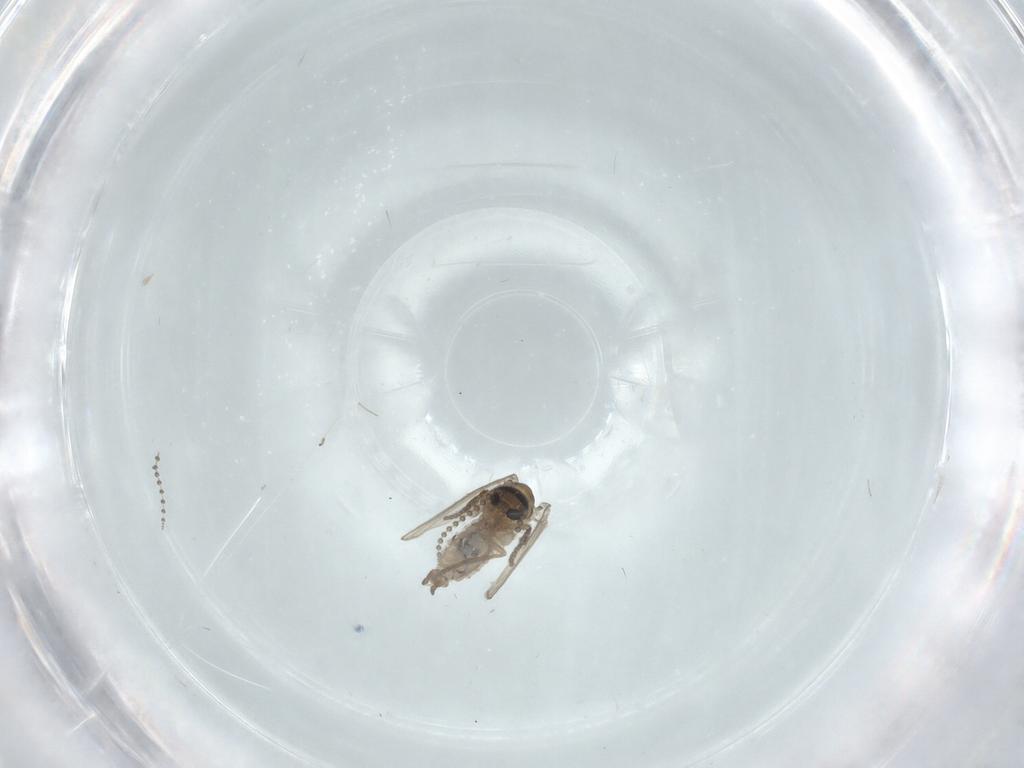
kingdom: Animalia
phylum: Arthropoda
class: Insecta
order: Diptera
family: Psychodidae
